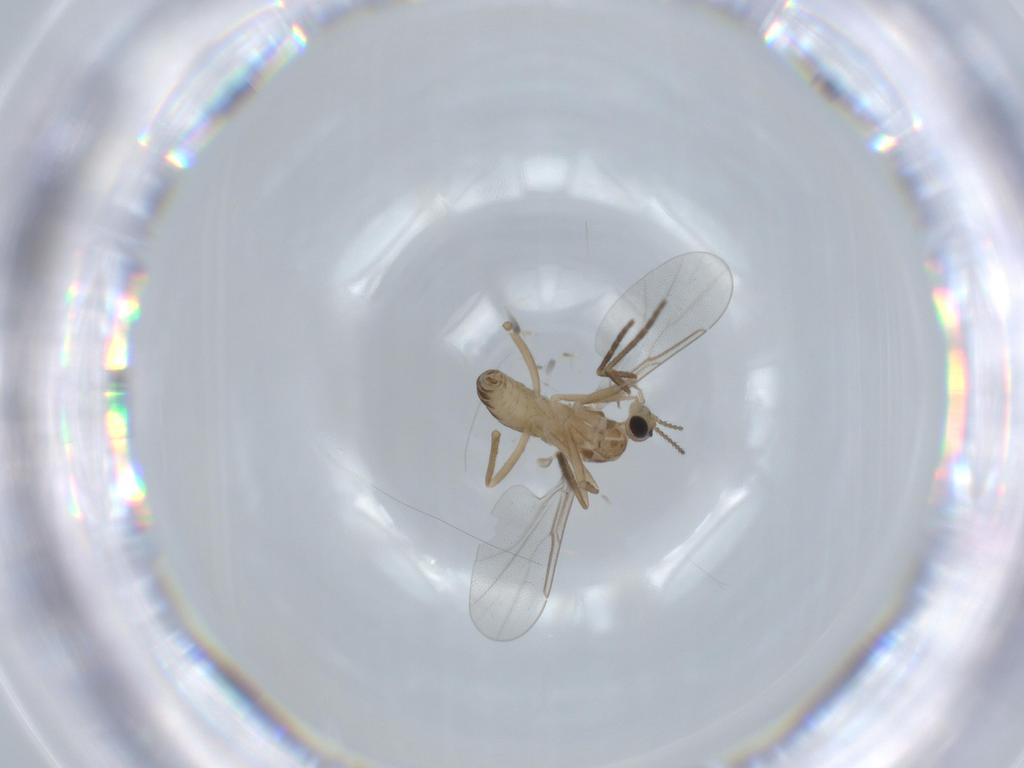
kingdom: Animalia
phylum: Arthropoda
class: Insecta
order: Diptera
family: Cecidomyiidae
